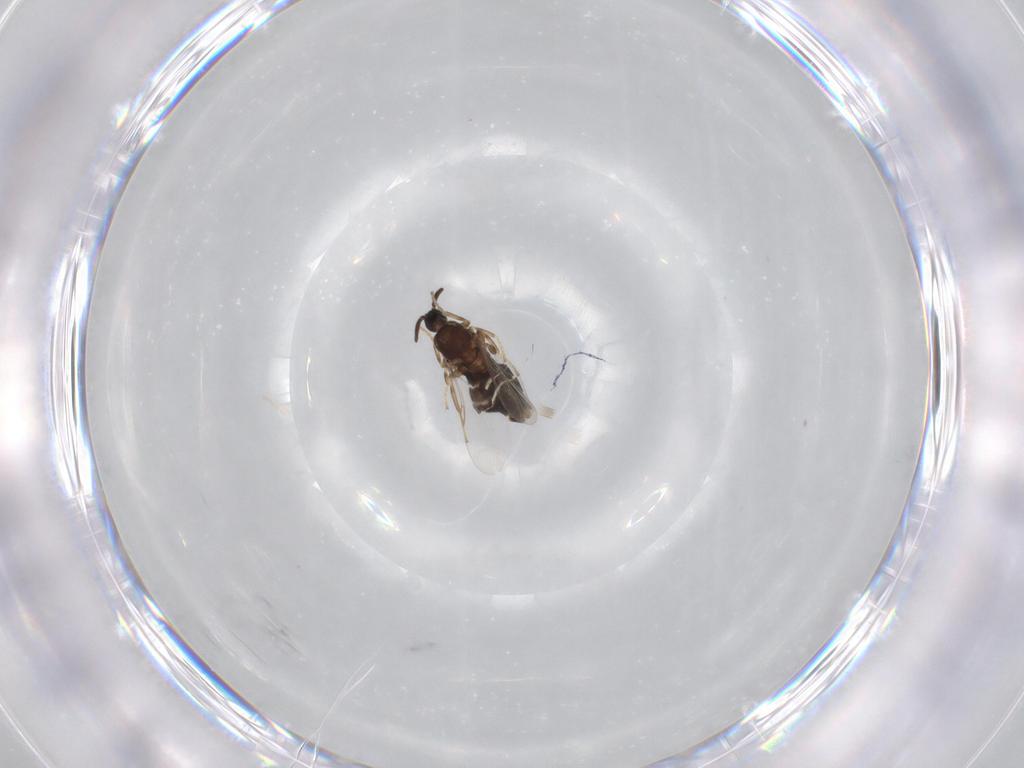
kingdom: Animalia
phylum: Arthropoda
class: Insecta
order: Diptera
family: Scatopsidae
